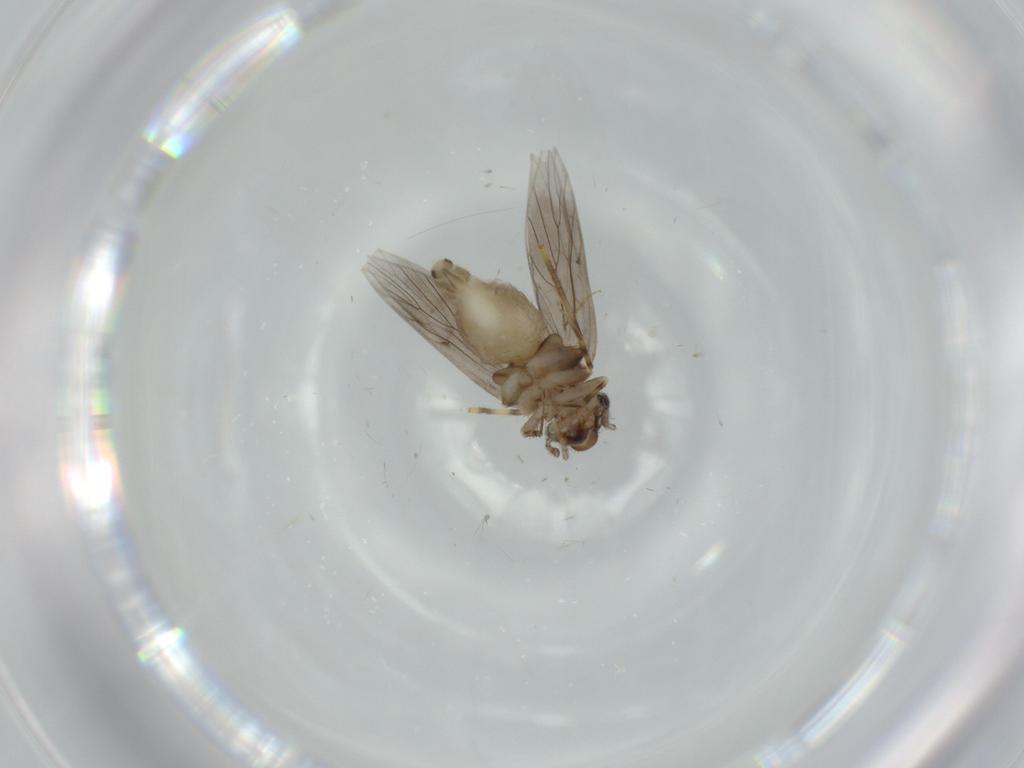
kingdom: Animalia
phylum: Arthropoda
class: Insecta
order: Psocodea
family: Lepidopsocidae
